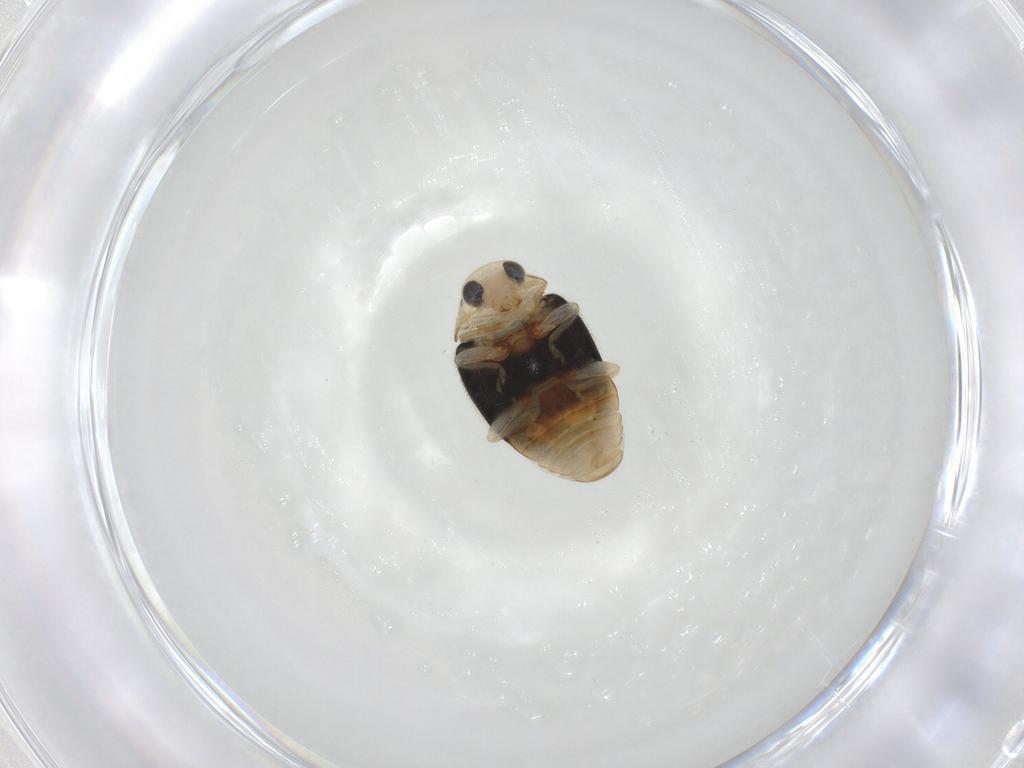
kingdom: Animalia
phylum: Arthropoda
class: Insecta
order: Coleoptera
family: Coccinellidae
